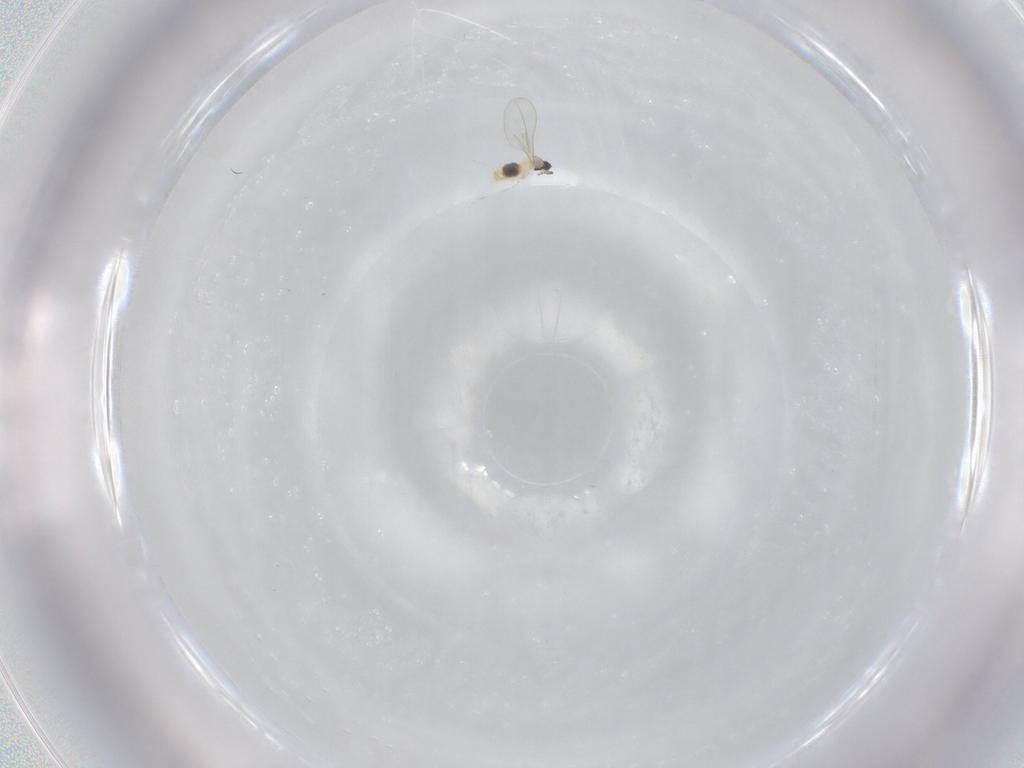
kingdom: Animalia
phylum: Arthropoda
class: Insecta
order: Diptera
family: Cecidomyiidae
